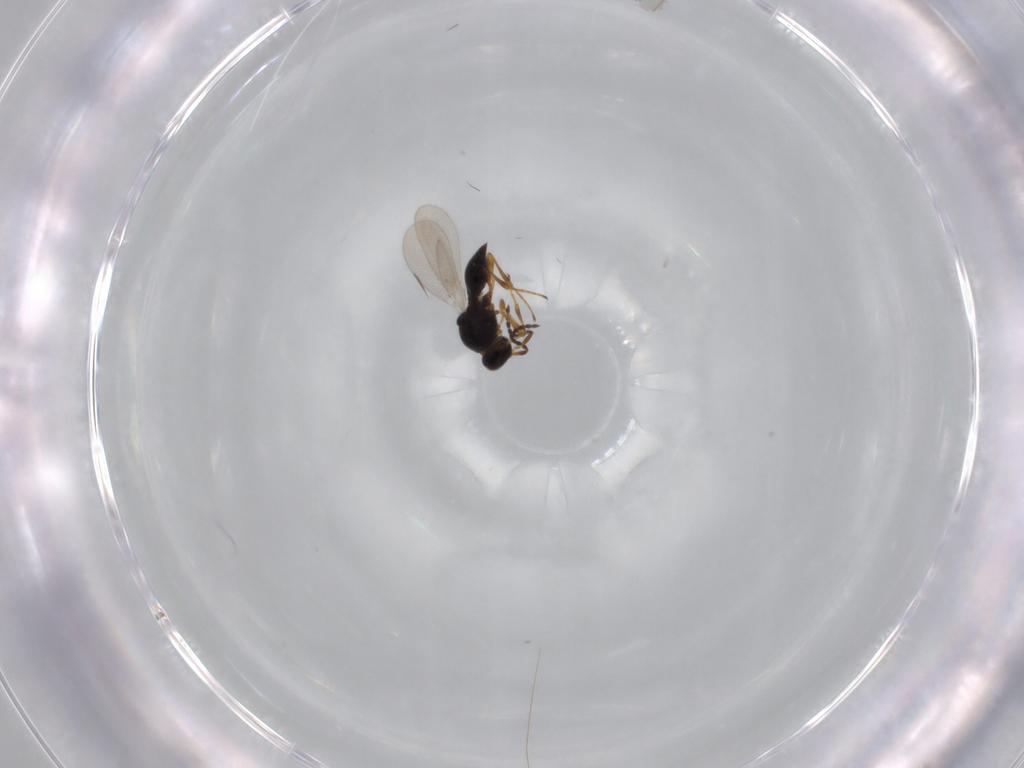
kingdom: Animalia
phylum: Arthropoda
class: Insecta
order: Diptera
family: Mythicomyiidae
